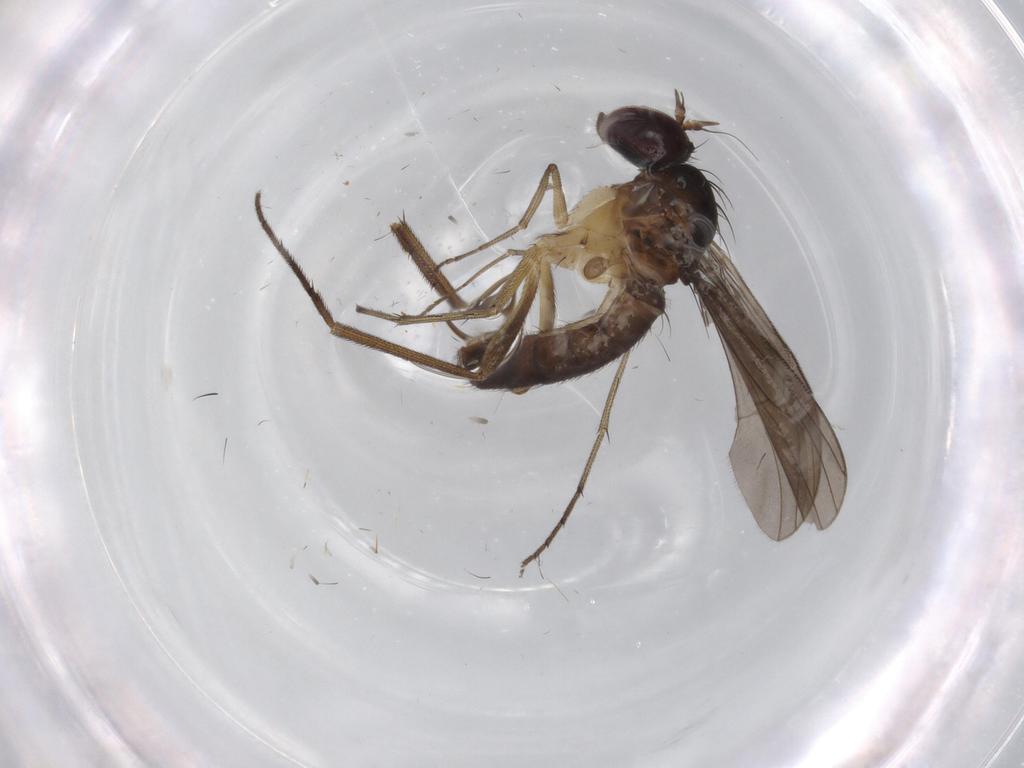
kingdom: Animalia
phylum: Arthropoda
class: Insecta
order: Diptera
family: Dolichopodidae
